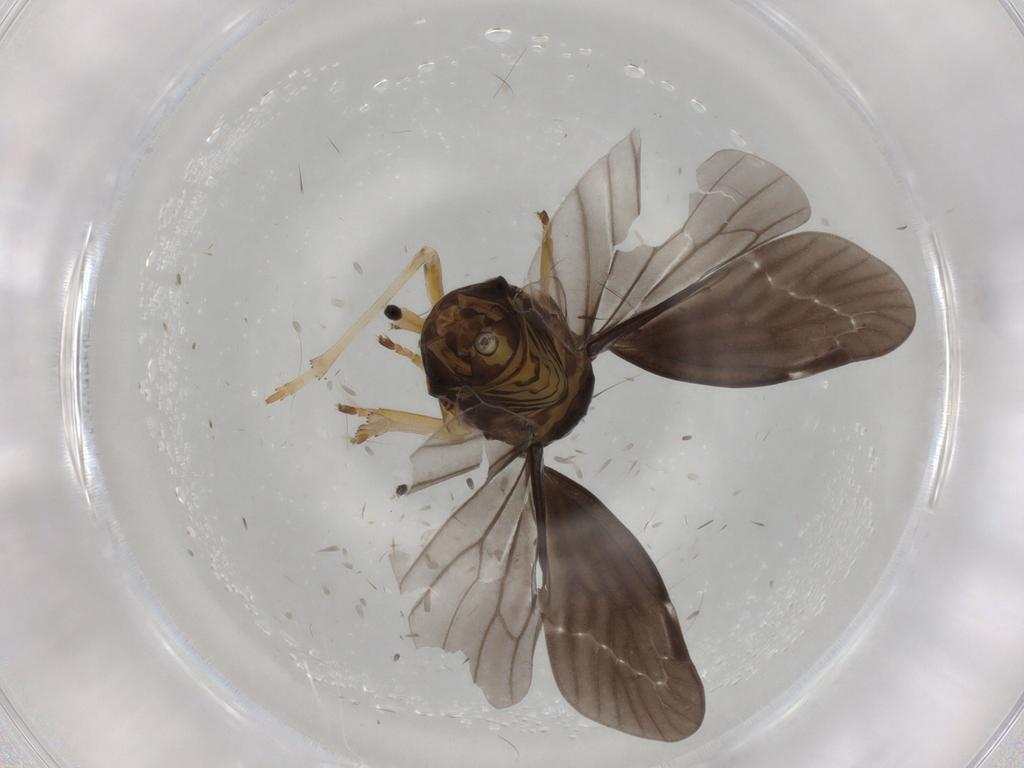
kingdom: Animalia
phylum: Arthropoda
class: Insecta
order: Hemiptera
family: Derbidae
